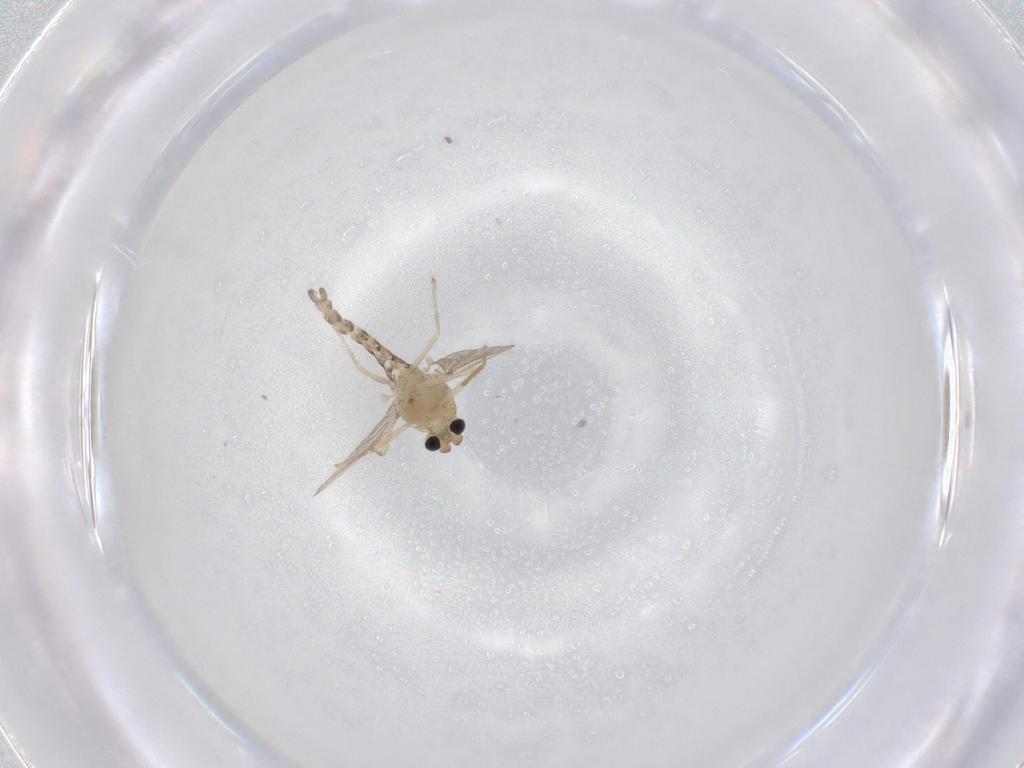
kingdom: Animalia
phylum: Arthropoda
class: Insecta
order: Diptera
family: Chironomidae
